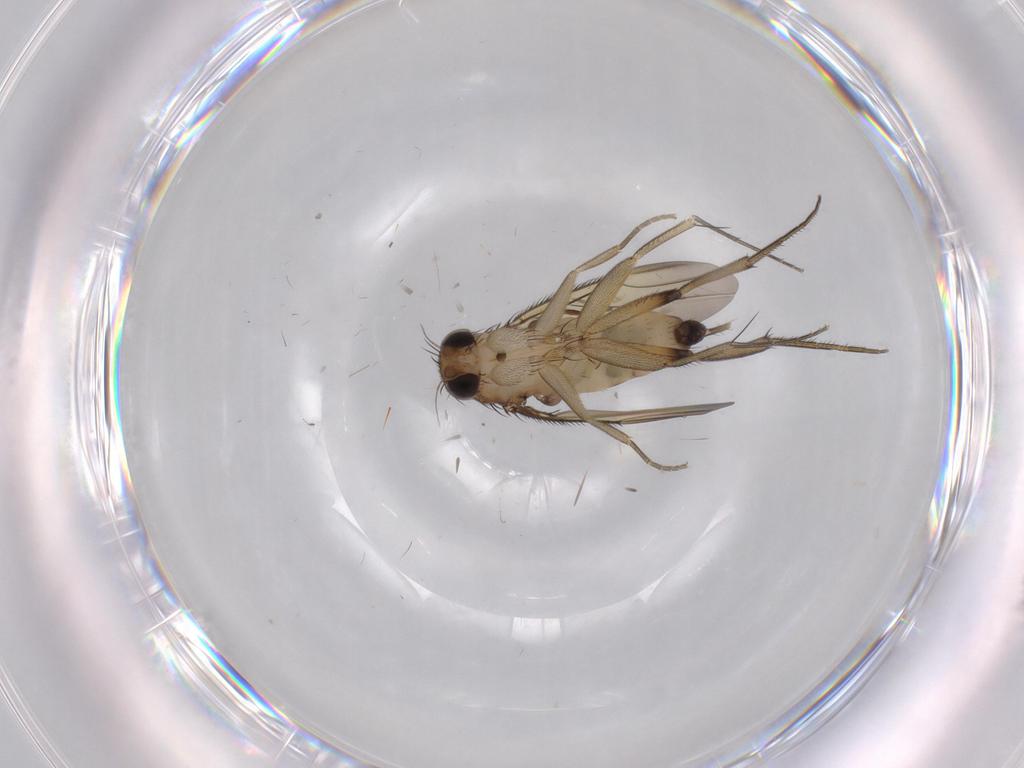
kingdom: Animalia
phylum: Arthropoda
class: Insecta
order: Diptera
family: Phoridae
